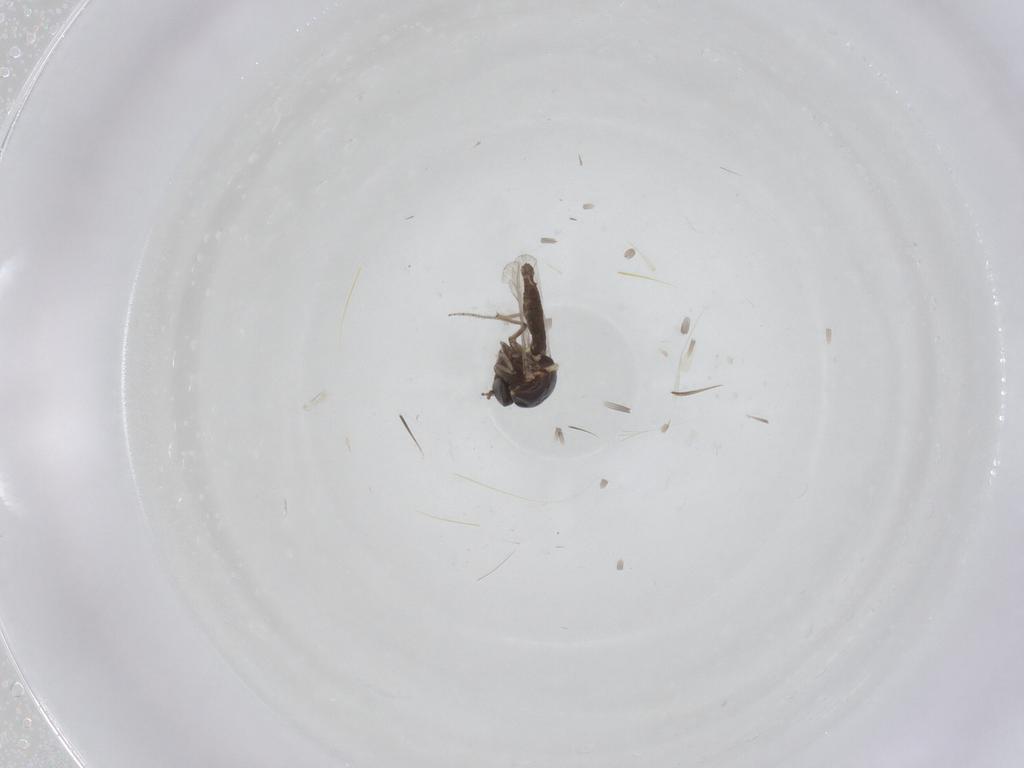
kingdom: Animalia
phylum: Arthropoda
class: Insecta
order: Diptera
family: Ceratopogonidae
